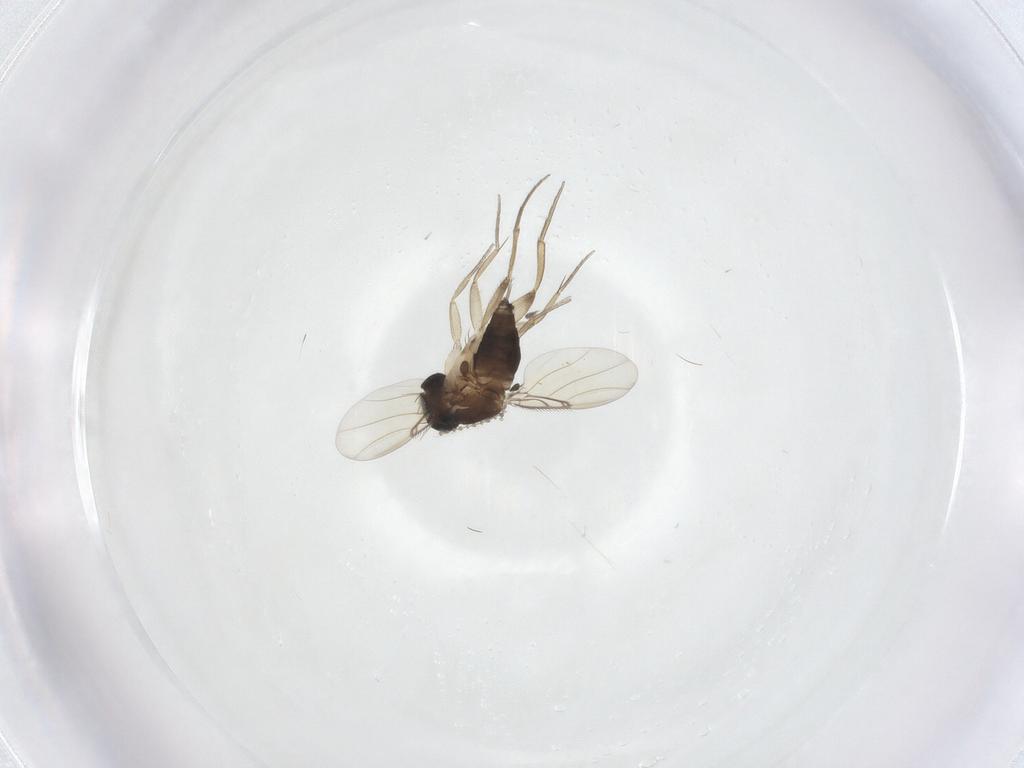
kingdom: Animalia
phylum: Arthropoda
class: Insecta
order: Diptera
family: Phoridae
